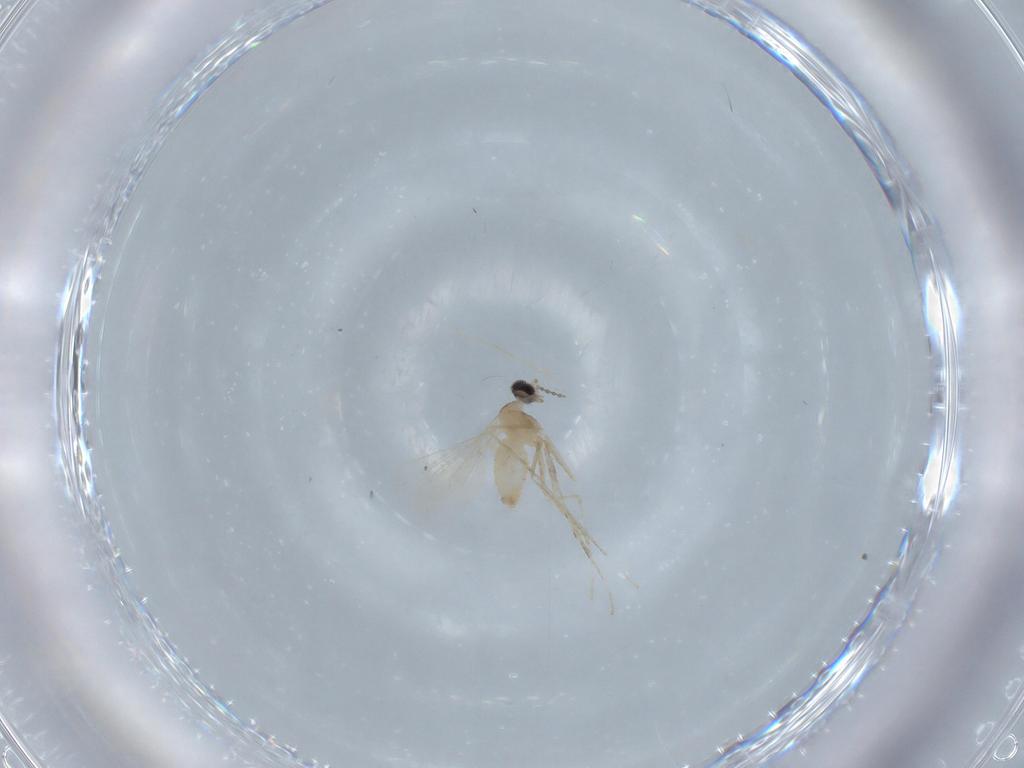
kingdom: Animalia
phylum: Arthropoda
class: Insecta
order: Diptera
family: Cecidomyiidae
